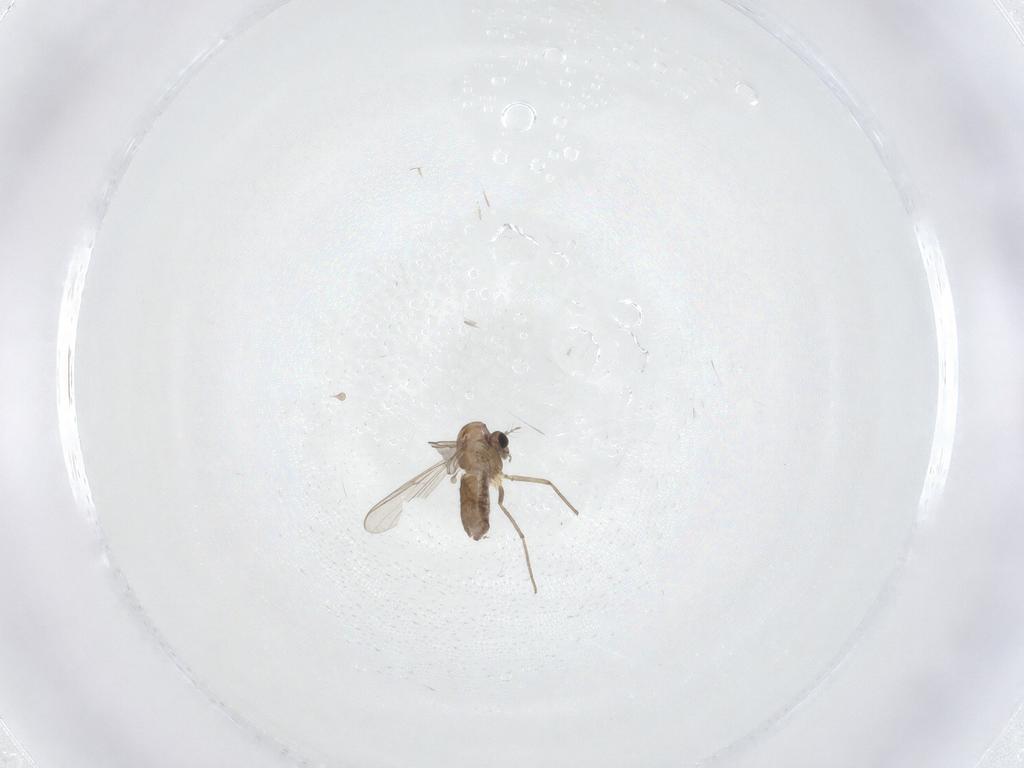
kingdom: Animalia
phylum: Arthropoda
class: Insecta
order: Diptera
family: Chironomidae
